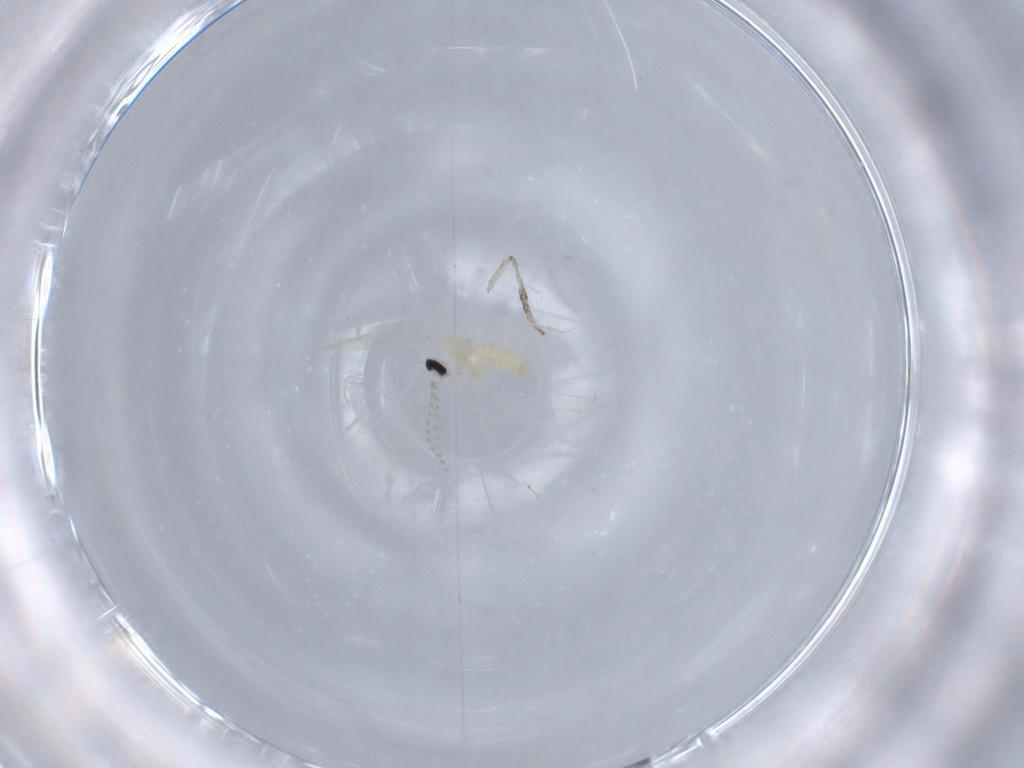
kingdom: Animalia
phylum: Arthropoda
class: Insecta
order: Diptera
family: Psychodidae
